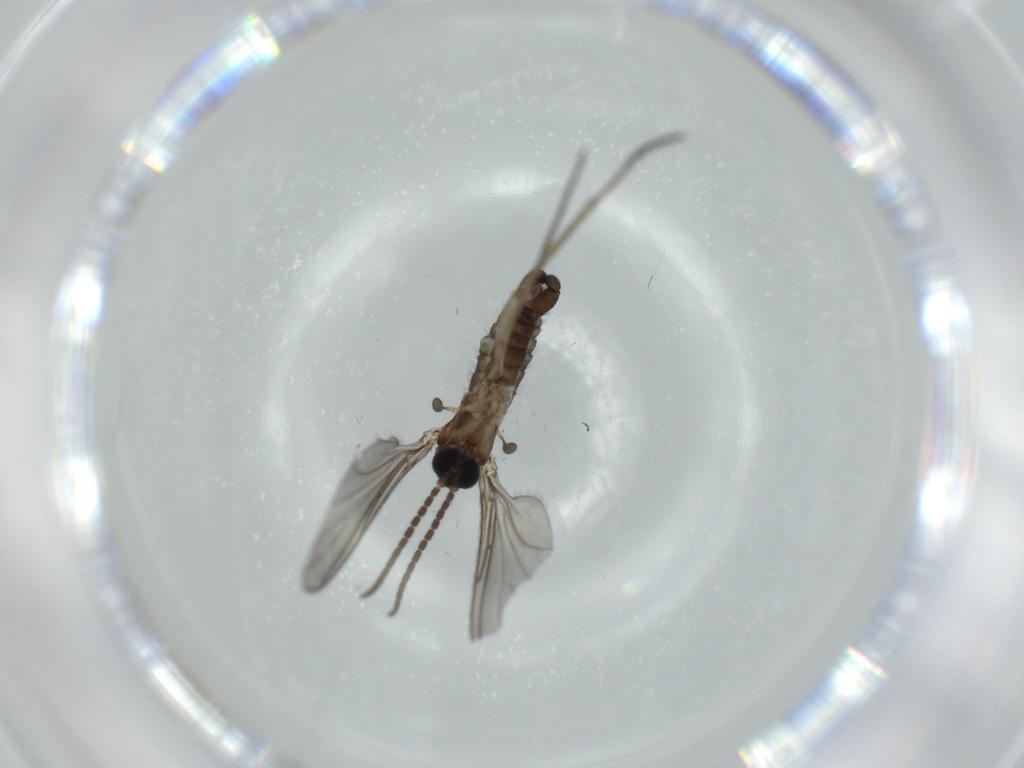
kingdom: Animalia
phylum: Arthropoda
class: Insecta
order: Diptera
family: Sciaridae
